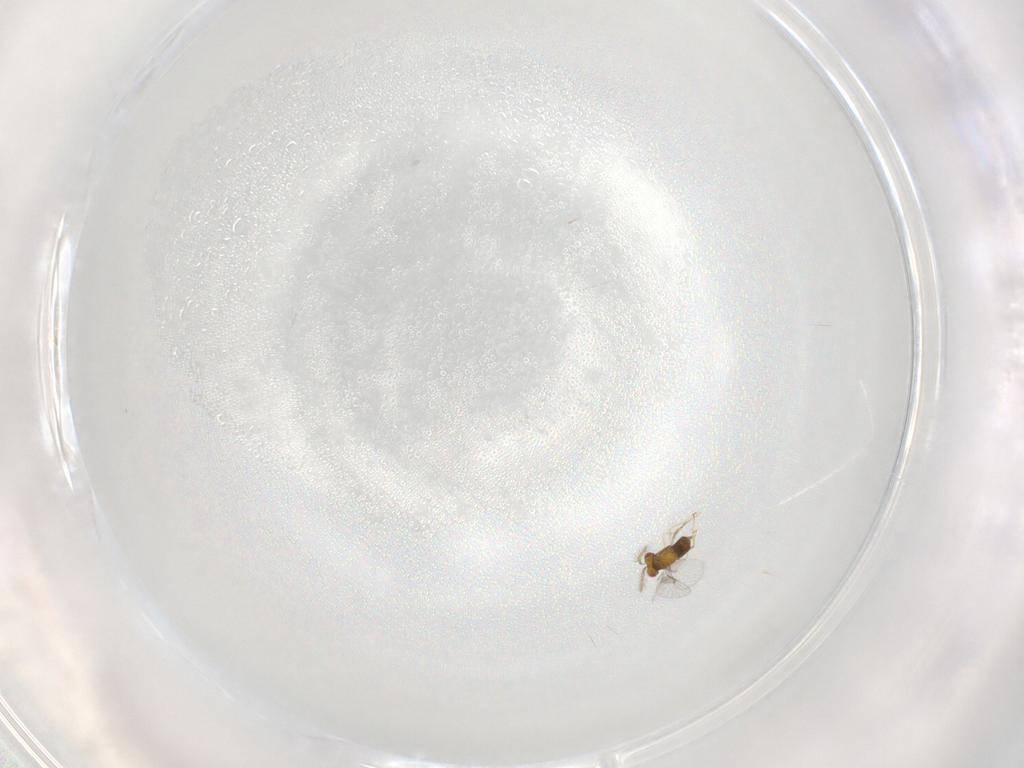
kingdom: Animalia
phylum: Arthropoda
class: Insecta
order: Hymenoptera
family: Trichogrammatidae
